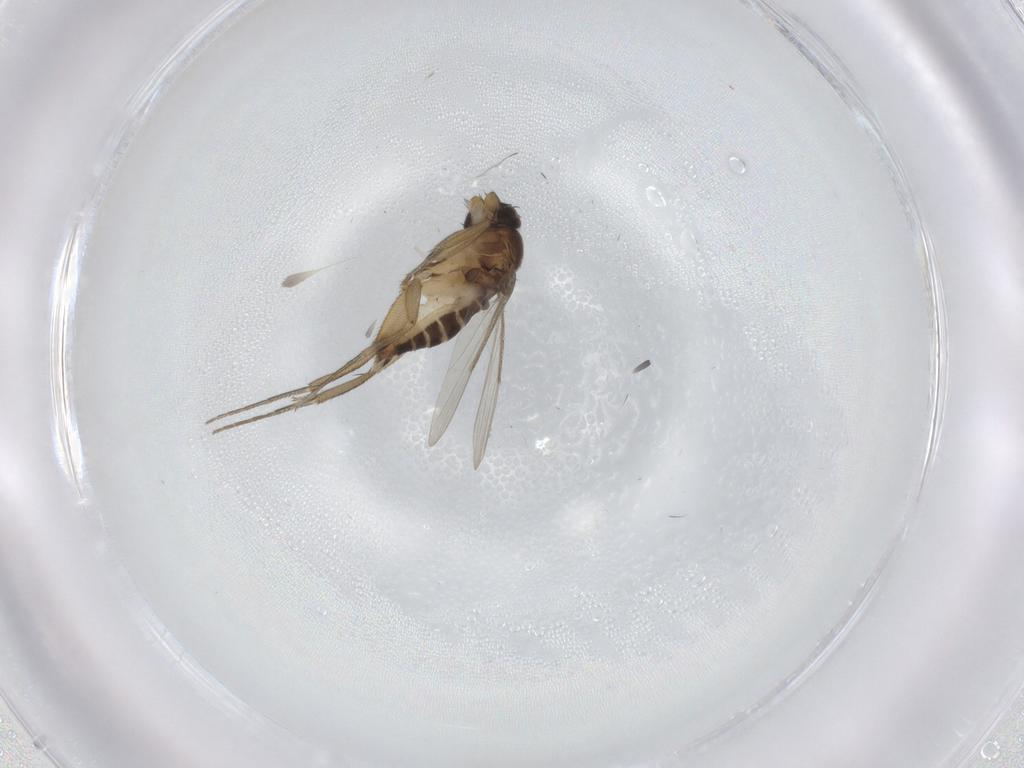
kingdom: Animalia
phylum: Arthropoda
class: Insecta
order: Diptera
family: Phoridae
